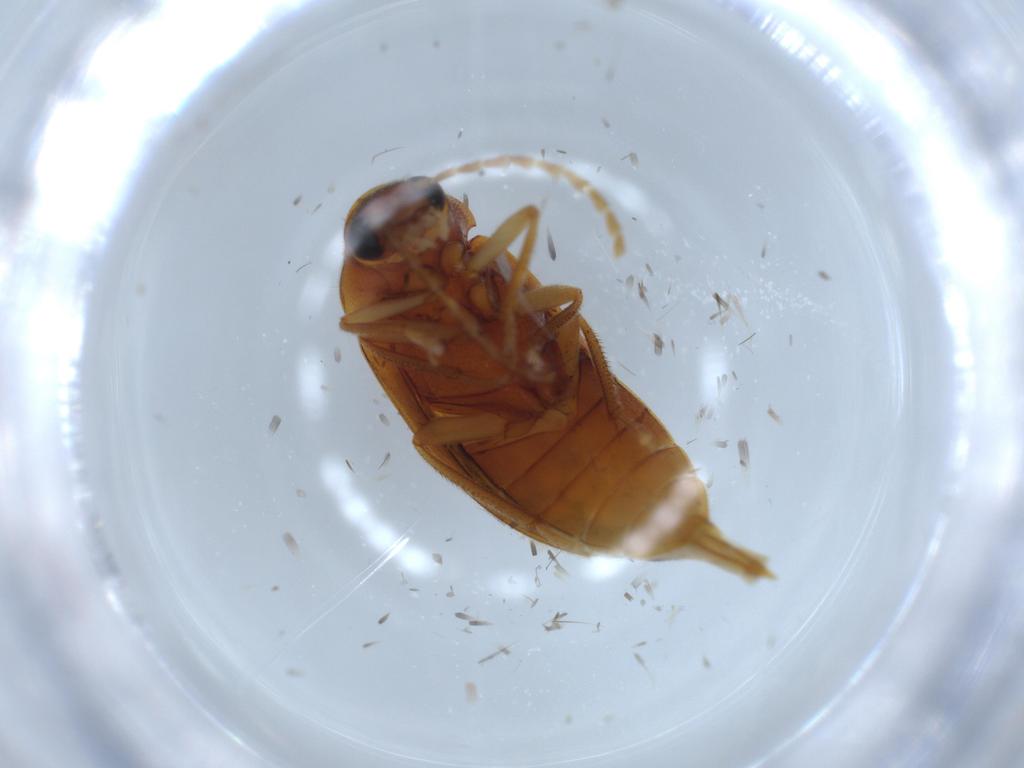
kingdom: Animalia
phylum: Arthropoda
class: Insecta
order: Coleoptera
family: Ptilodactylidae
